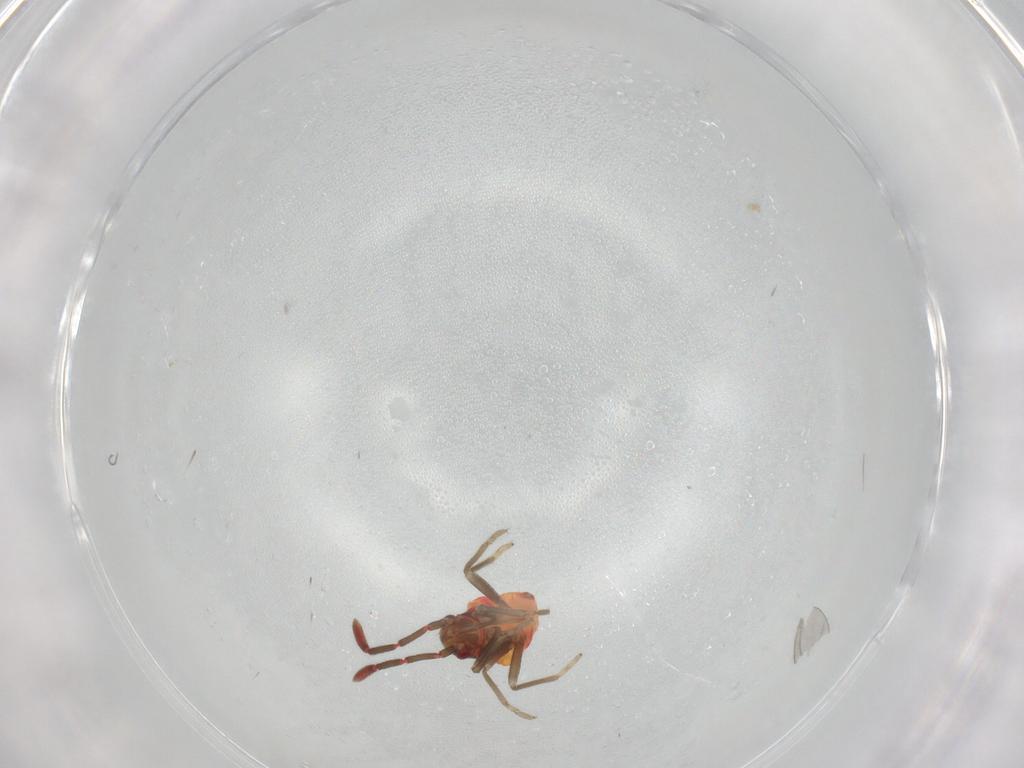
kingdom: Animalia
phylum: Arthropoda
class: Insecta
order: Hemiptera
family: Rhyparochromidae
